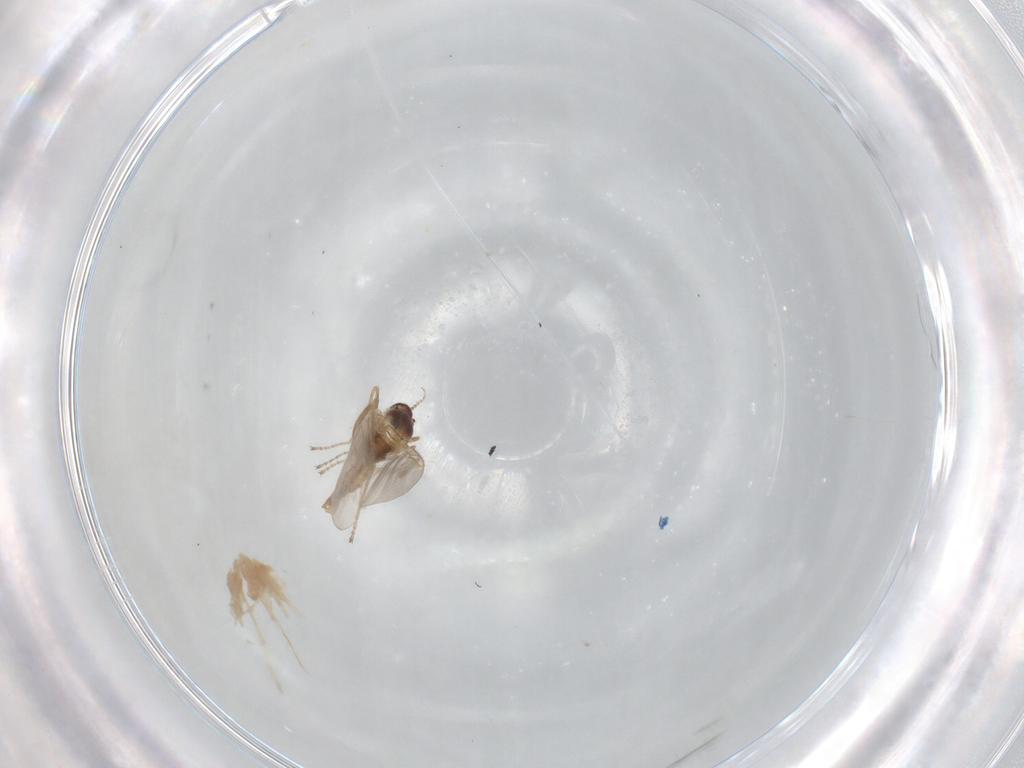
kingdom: Animalia
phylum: Arthropoda
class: Insecta
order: Diptera
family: Cecidomyiidae
